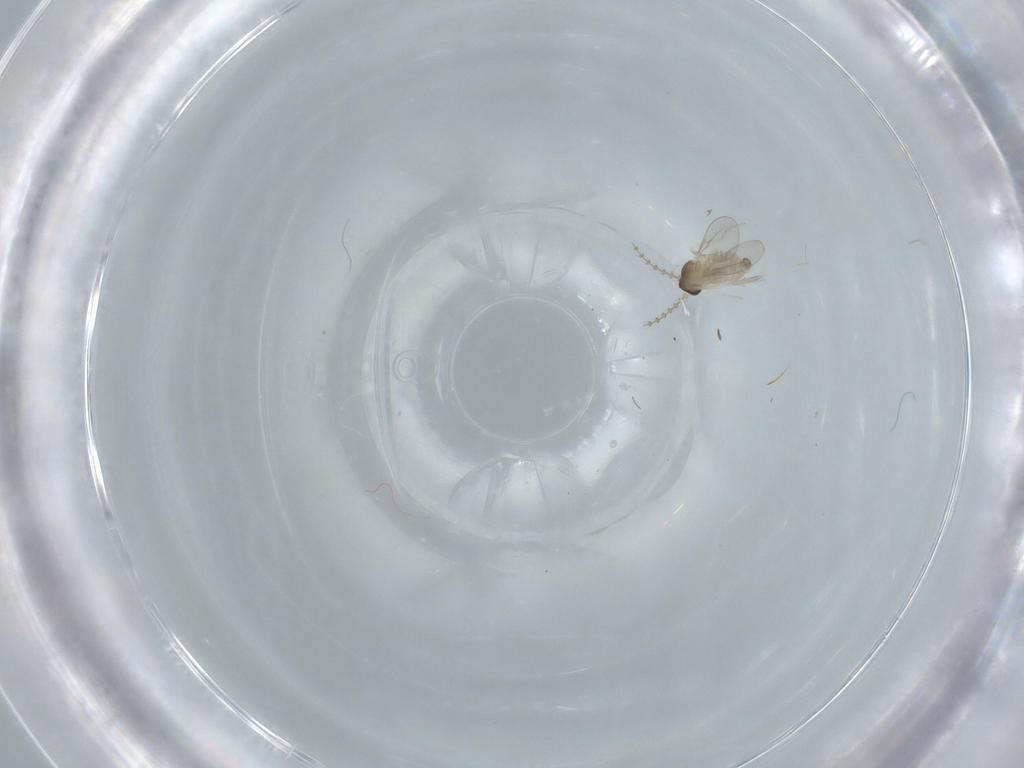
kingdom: Animalia
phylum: Arthropoda
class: Insecta
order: Diptera
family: Cecidomyiidae
